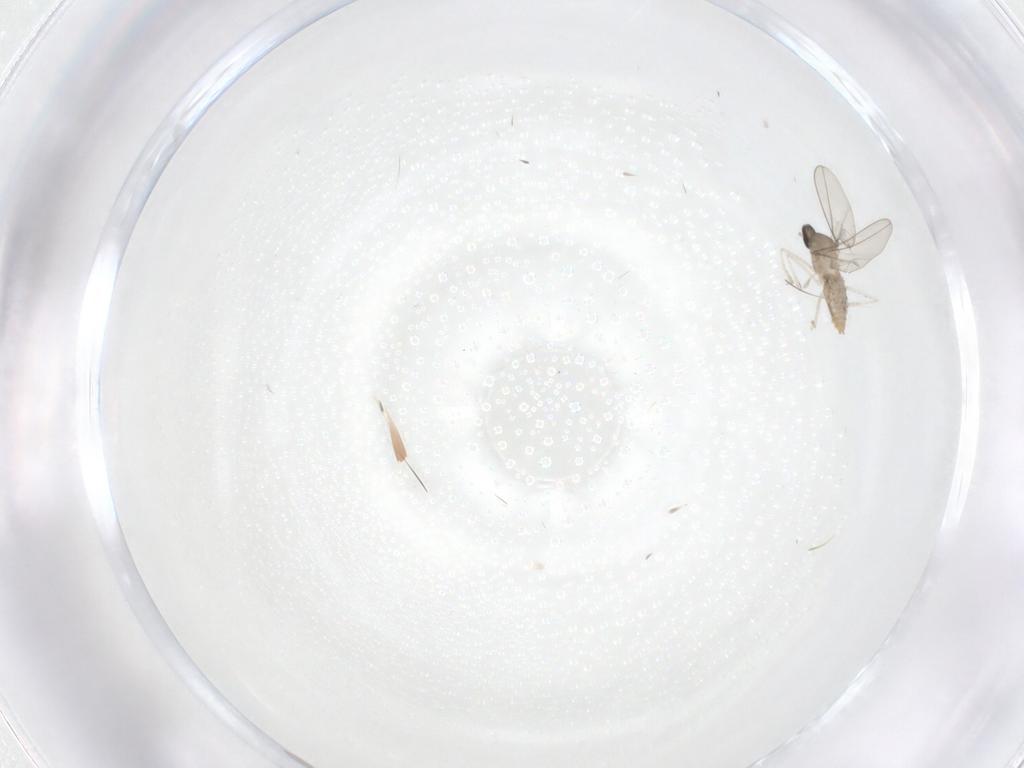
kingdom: Animalia
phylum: Arthropoda
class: Insecta
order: Diptera
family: Cecidomyiidae
